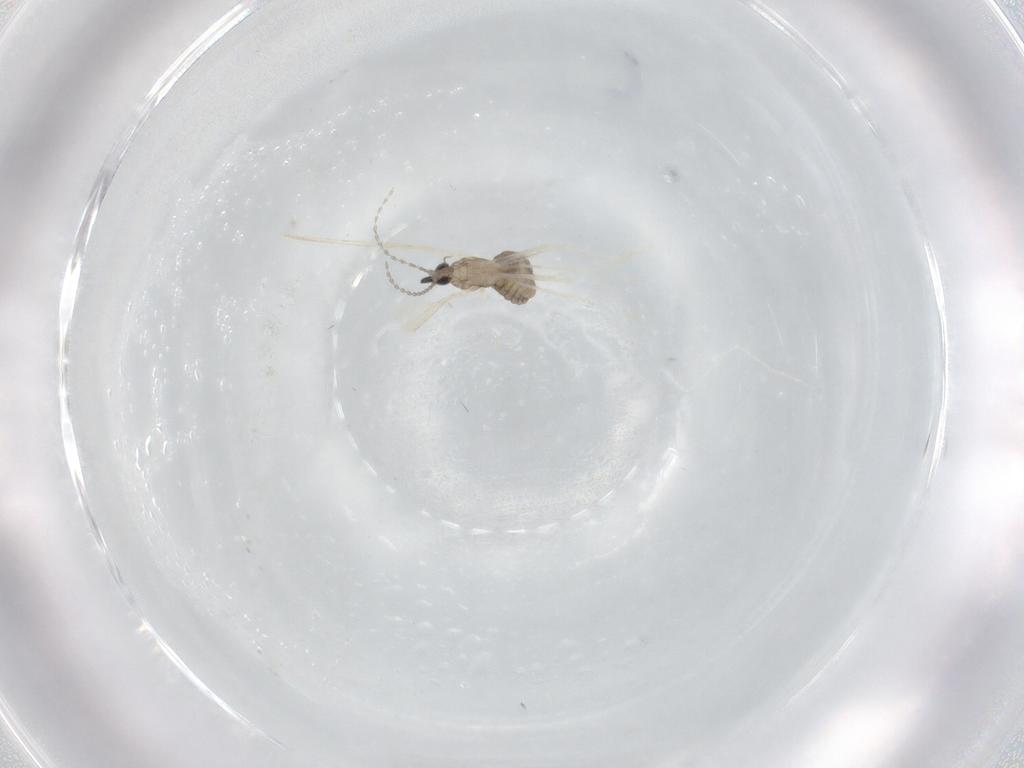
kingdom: Animalia
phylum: Arthropoda
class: Insecta
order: Diptera
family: Cecidomyiidae
